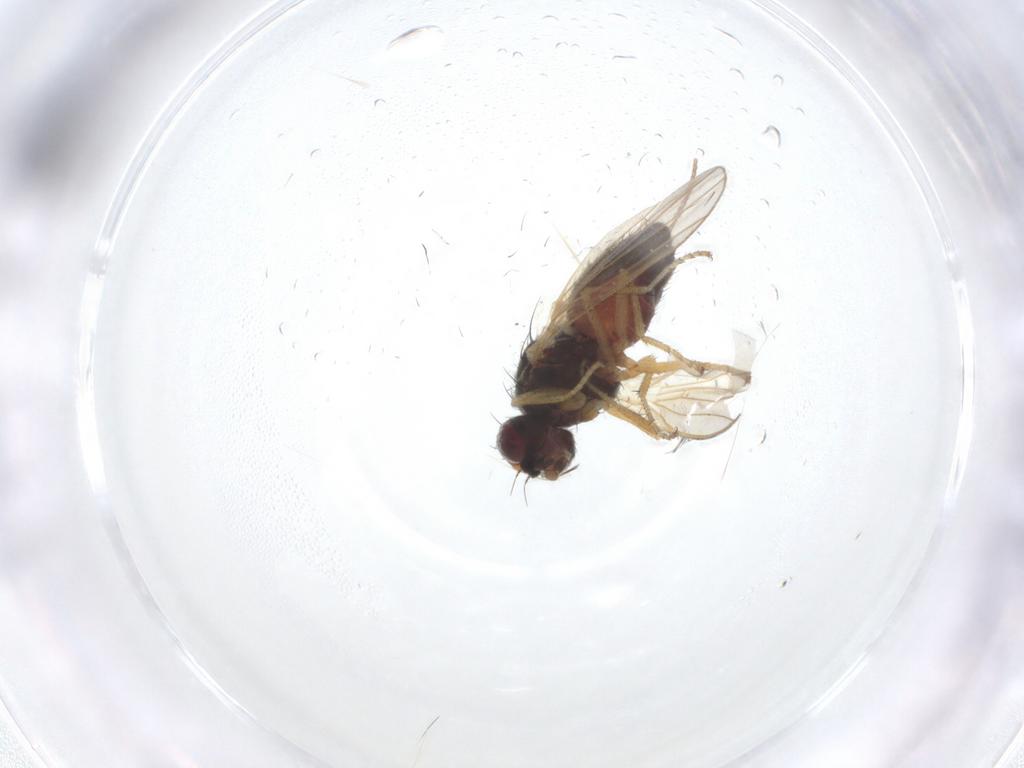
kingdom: Animalia
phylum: Arthropoda
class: Insecta
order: Diptera
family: Heleomyzidae
